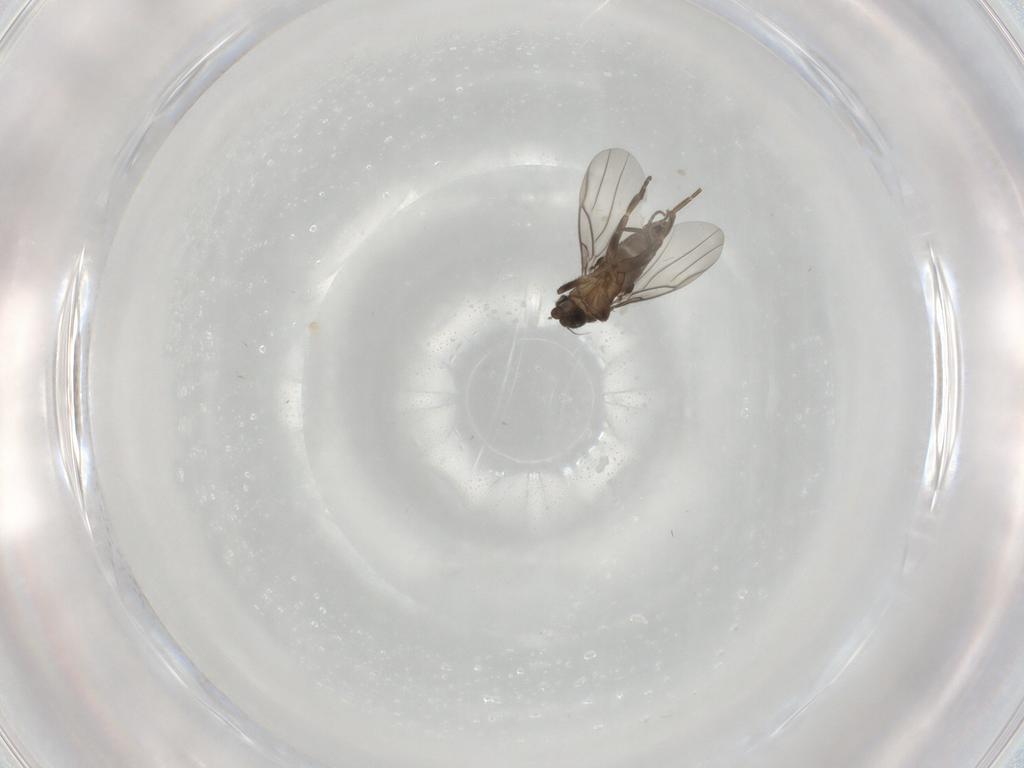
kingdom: Animalia
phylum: Arthropoda
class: Insecta
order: Diptera
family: Phoridae
